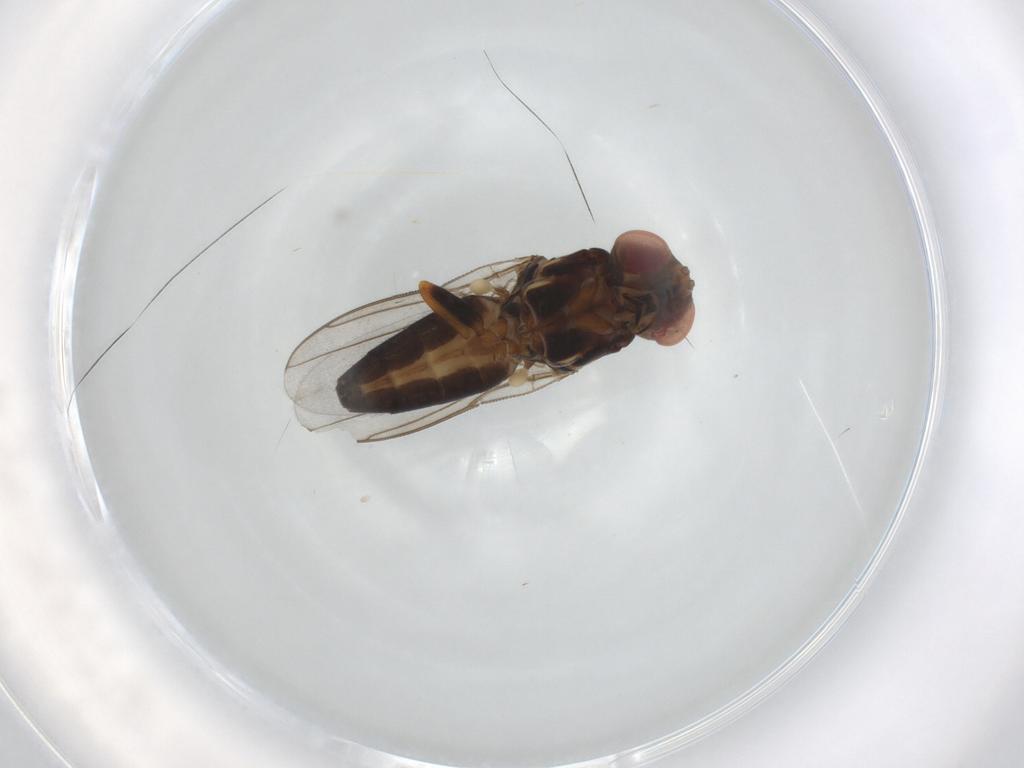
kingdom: Animalia
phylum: Arthropoda
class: Insecta
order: Diptera
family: Chloropidae
